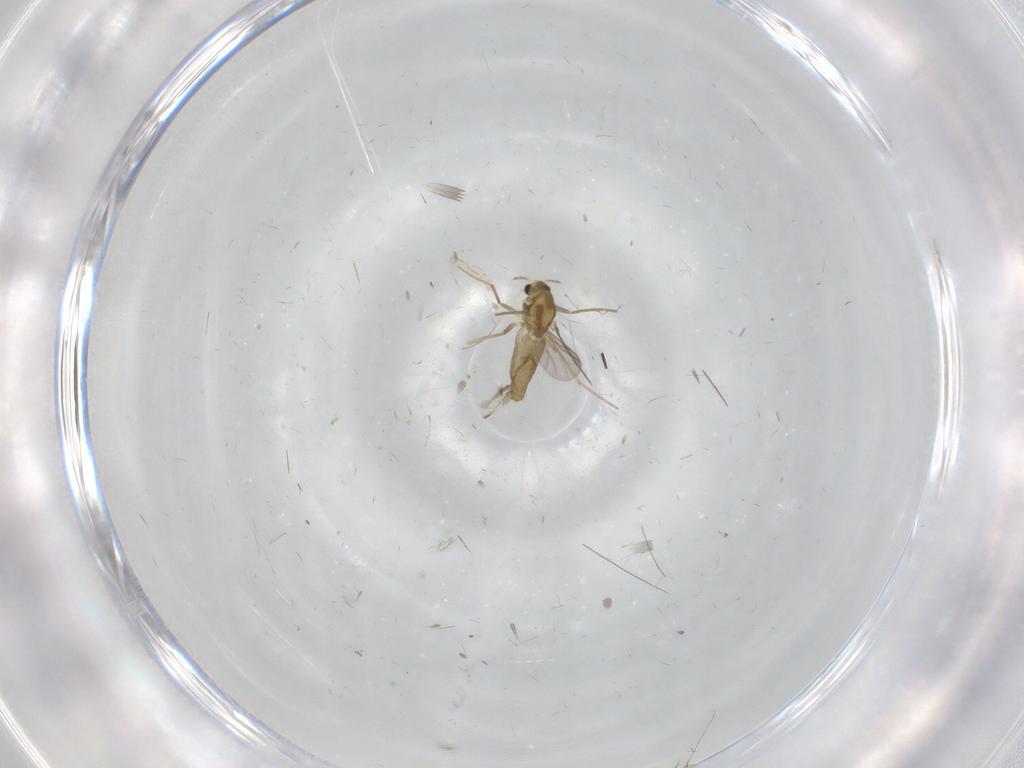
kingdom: Animalia
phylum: Arthropoda
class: Insecta
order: Diptera
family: Chironomidae
